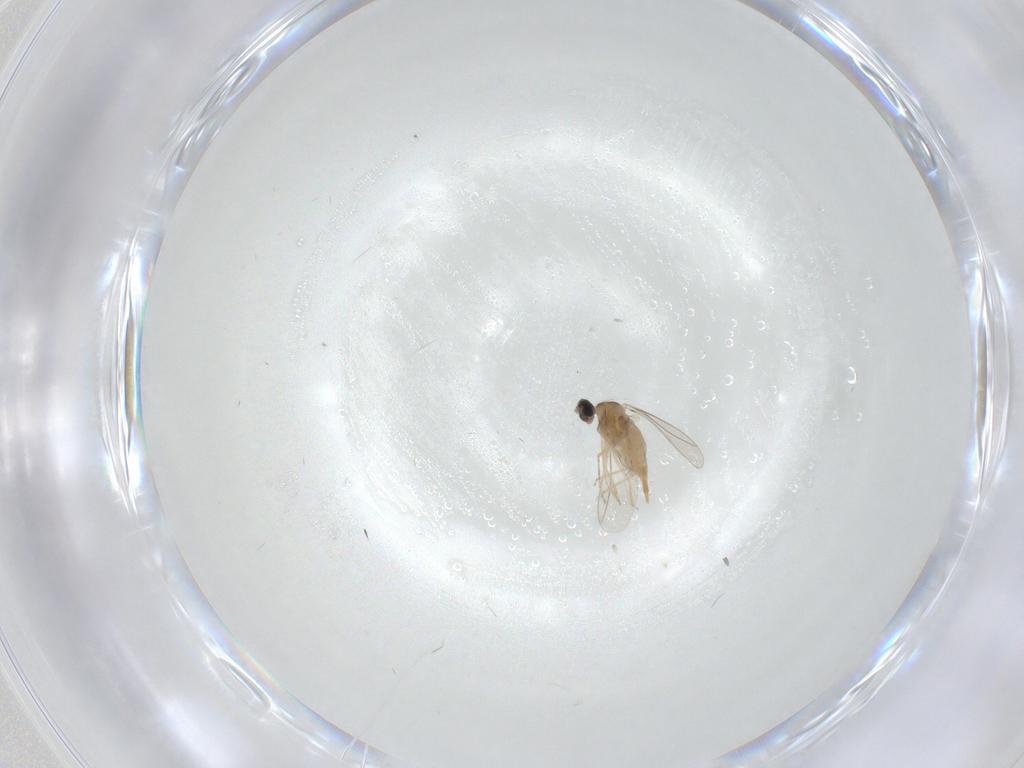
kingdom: Animalia
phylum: Arthropoda
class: Insecta
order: Diptera
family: Phoridae
